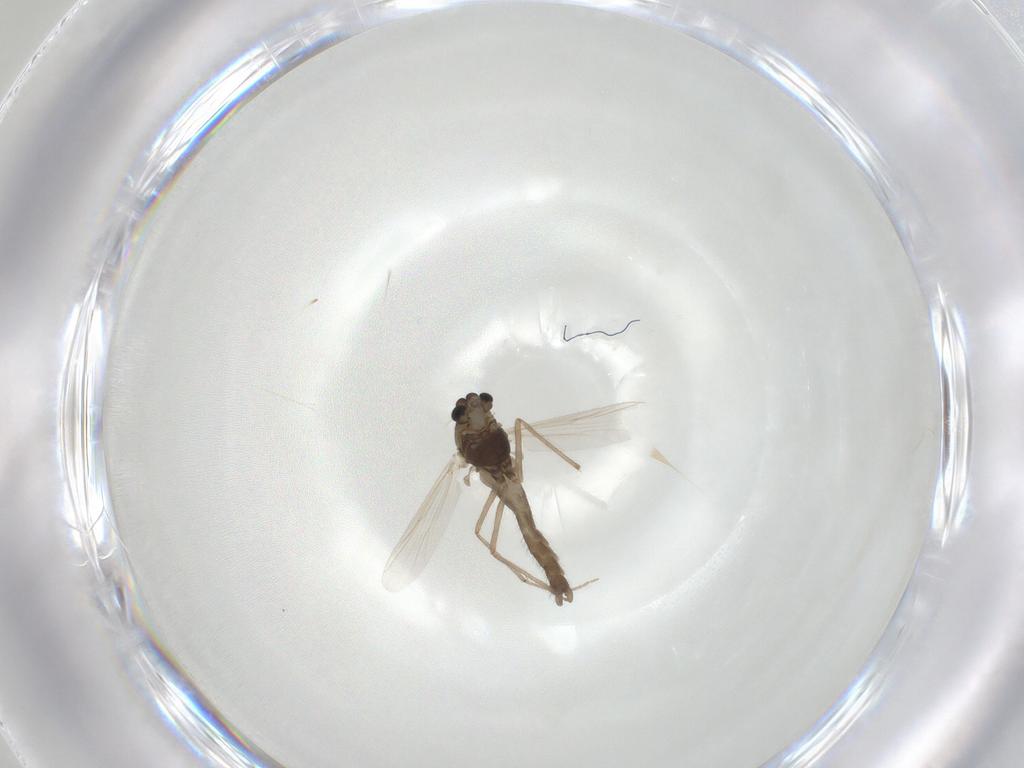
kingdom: Animalia
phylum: Arthropoda
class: Insecta
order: Diptera
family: Chironomidae
